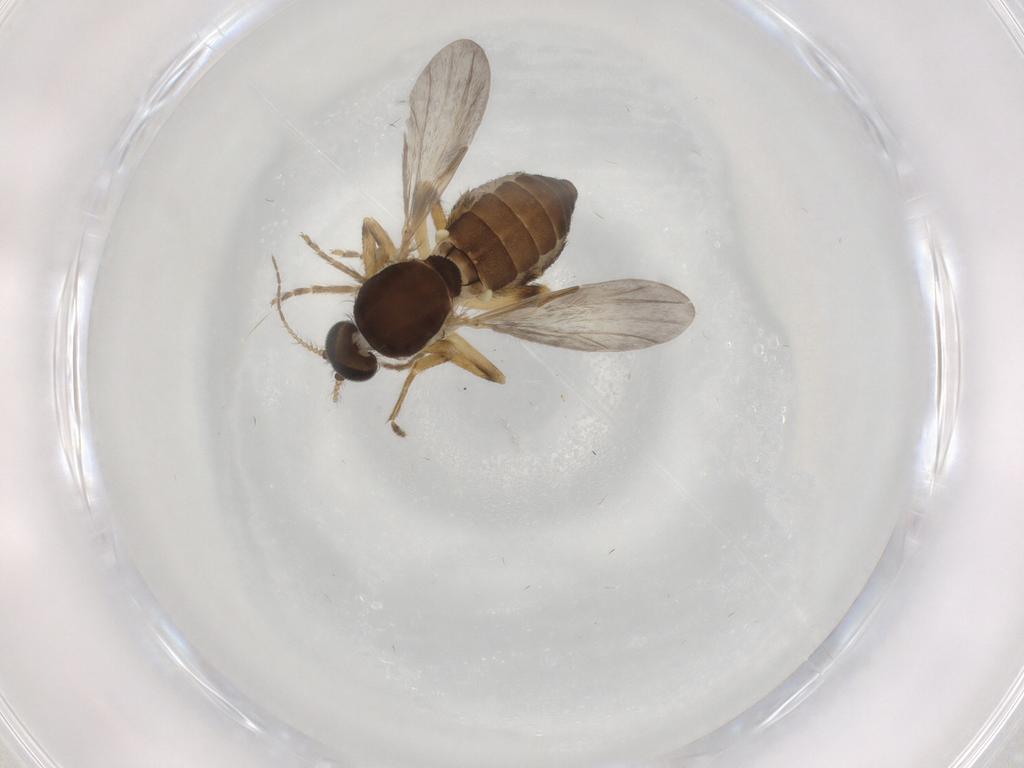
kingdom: Animalia
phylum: Arthropoda
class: Insecta
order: Diptera
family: Ceratopogonidae
